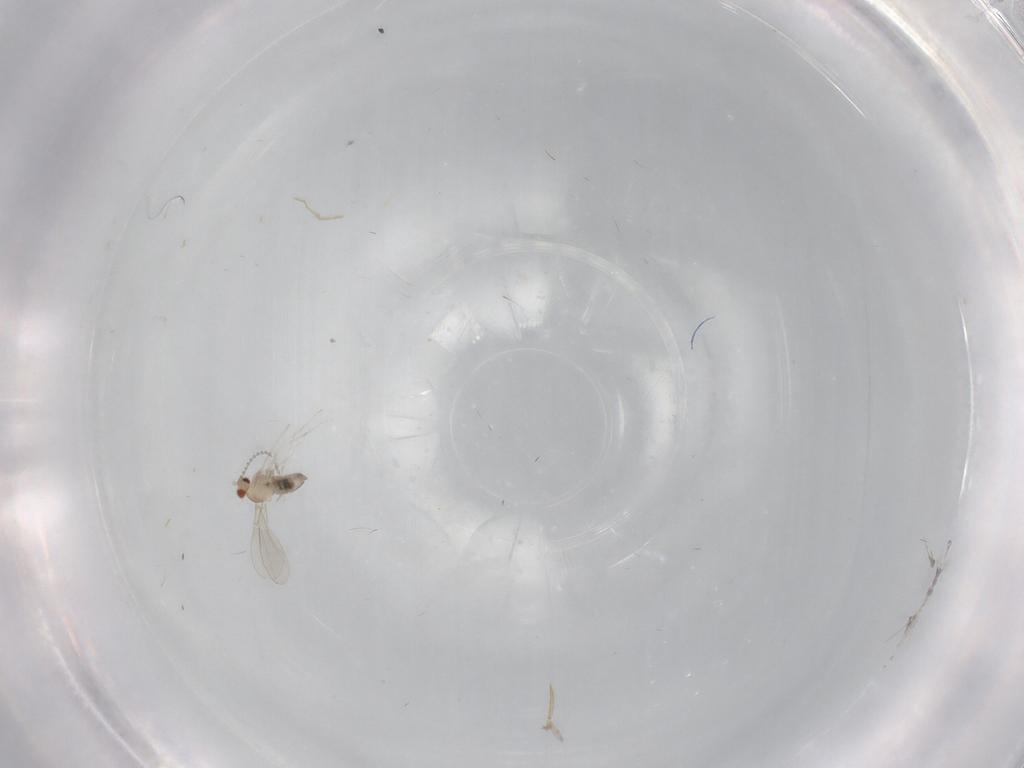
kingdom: Animalia
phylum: Arthropoda
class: Insecta
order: Diptera
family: Cecidomyiidae
